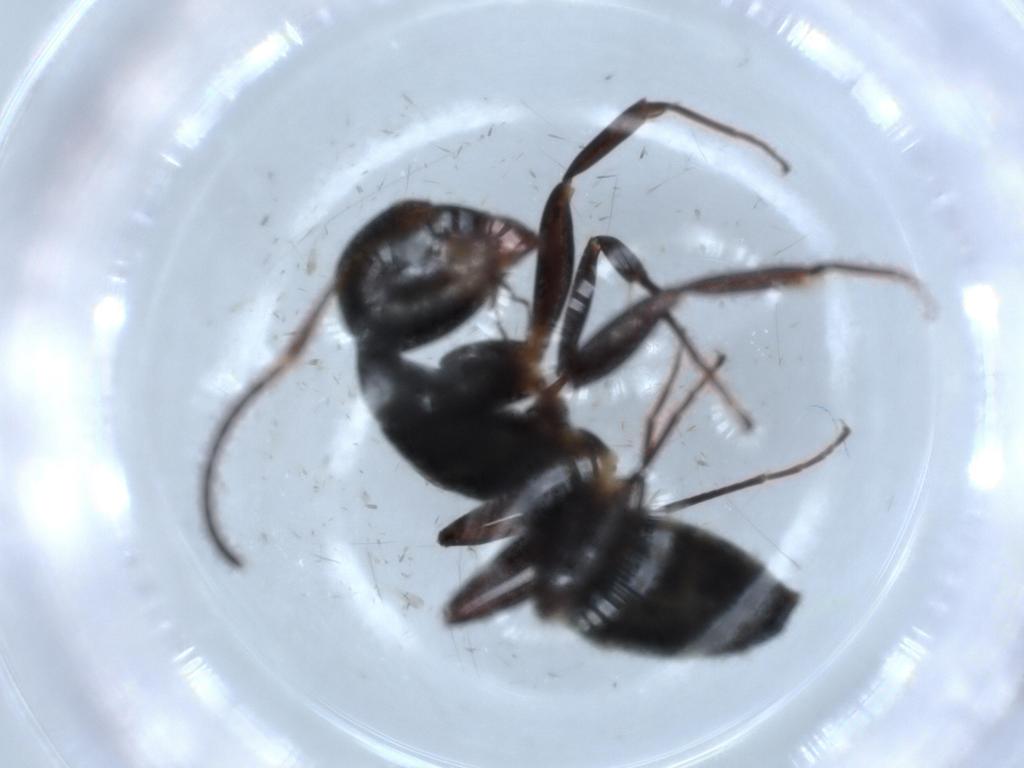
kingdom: Animalia
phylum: Arthropoda
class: Insecta
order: Hymenoptera
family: Formicidae
